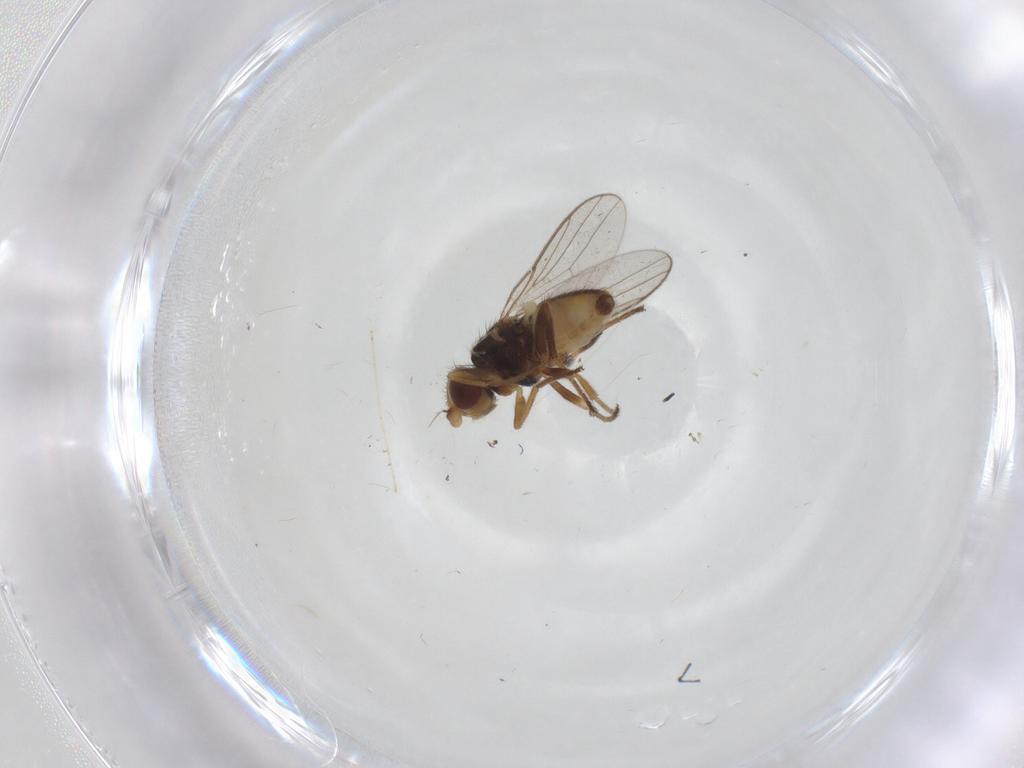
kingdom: Animalia
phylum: Arthropoda
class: Insecta
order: Diptera
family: Chloropidae
